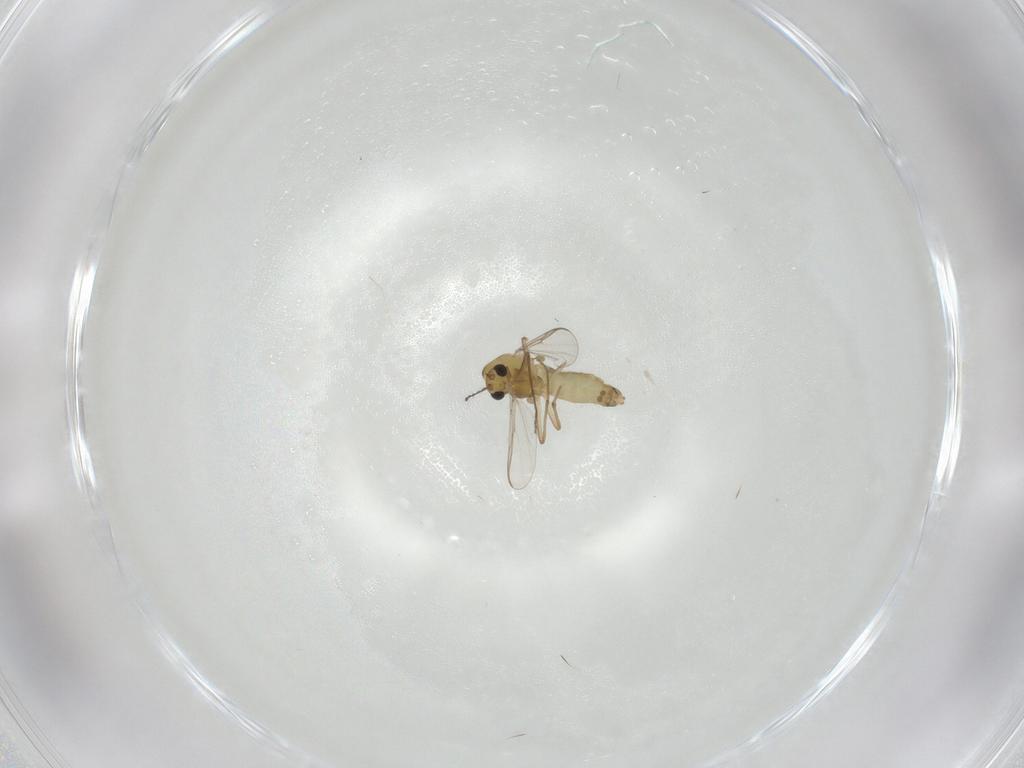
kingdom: Animalia
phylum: Arthropoda
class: Insecta
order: Diptera
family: Chironomidae
